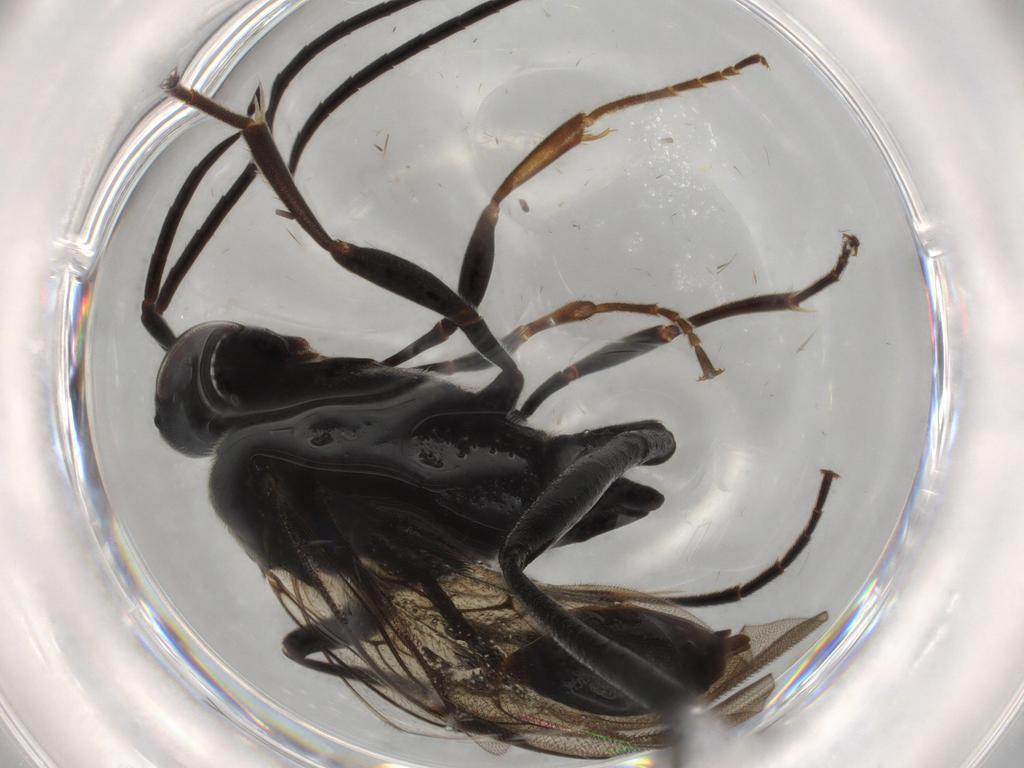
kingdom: Animalia
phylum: Arthropoda
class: Insecta
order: Hymenoptera
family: Evaniidae
